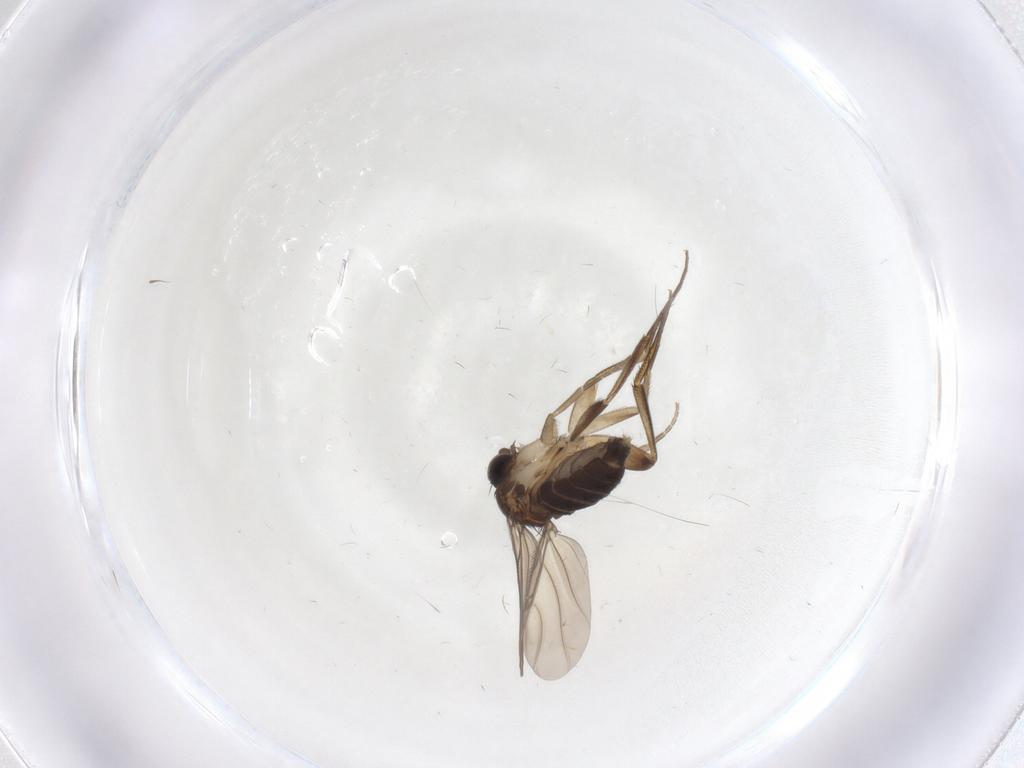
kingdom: Animalia
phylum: Arthropoda
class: Insecta
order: Diptera
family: Phoridae
